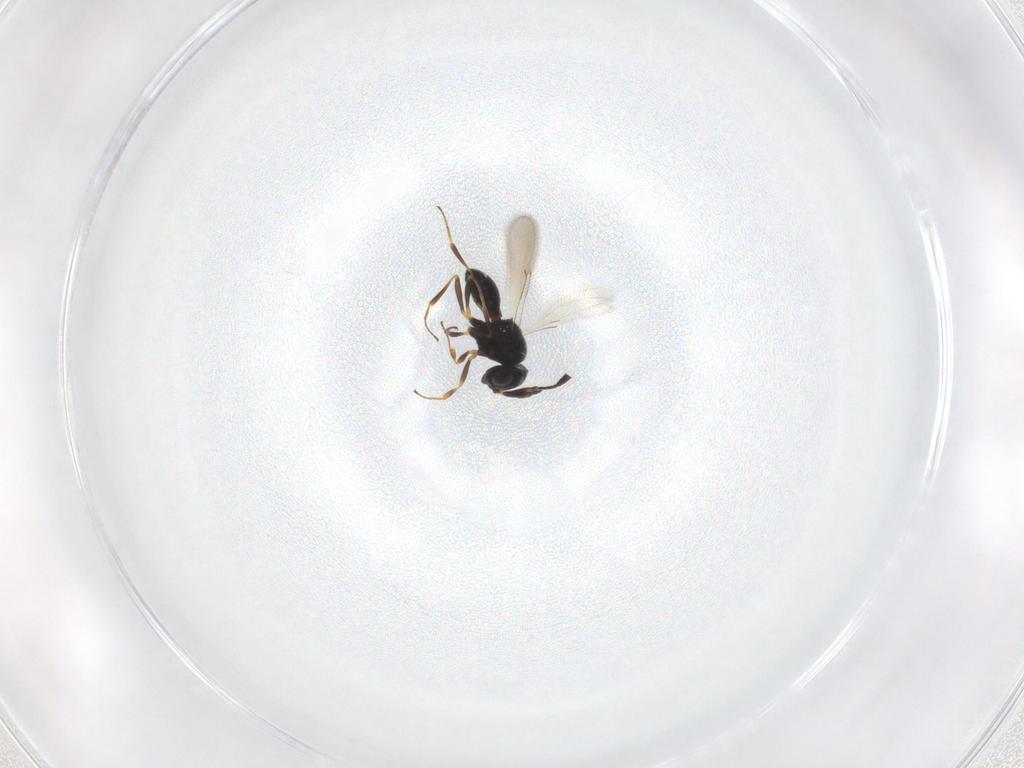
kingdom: Animalia
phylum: Arthropoda
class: Insecta
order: Hymenoptera
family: Scelionidae
